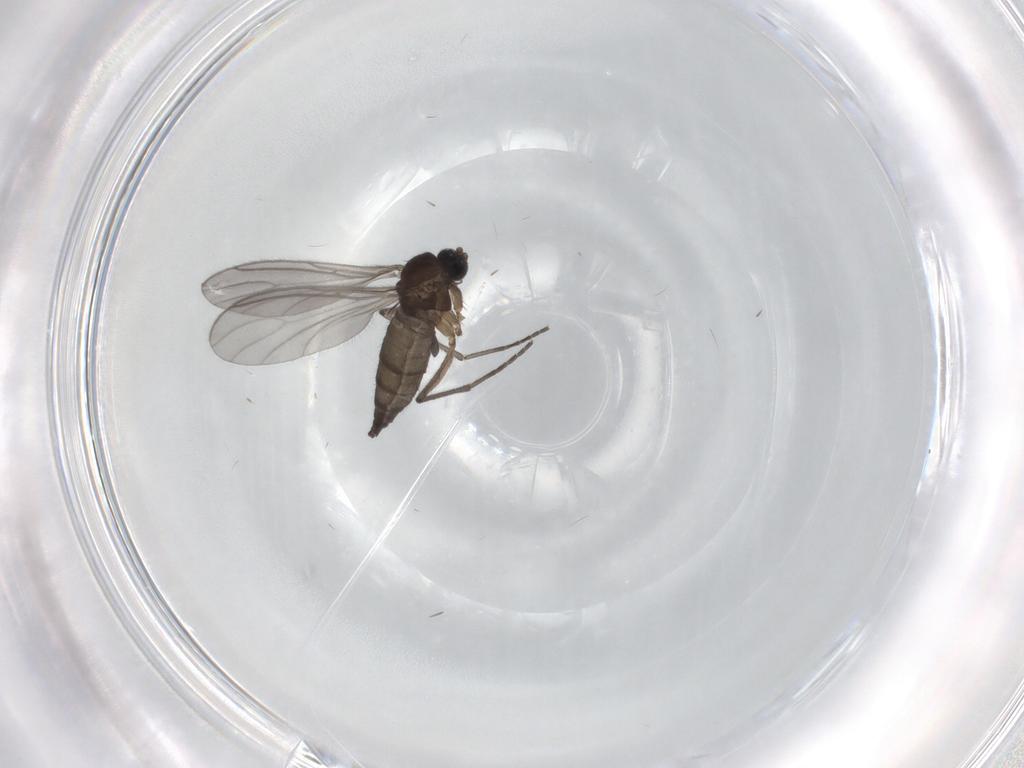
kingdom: Animalia
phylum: Arthropoda
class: Insecta
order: Diptera
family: Sciaridae
